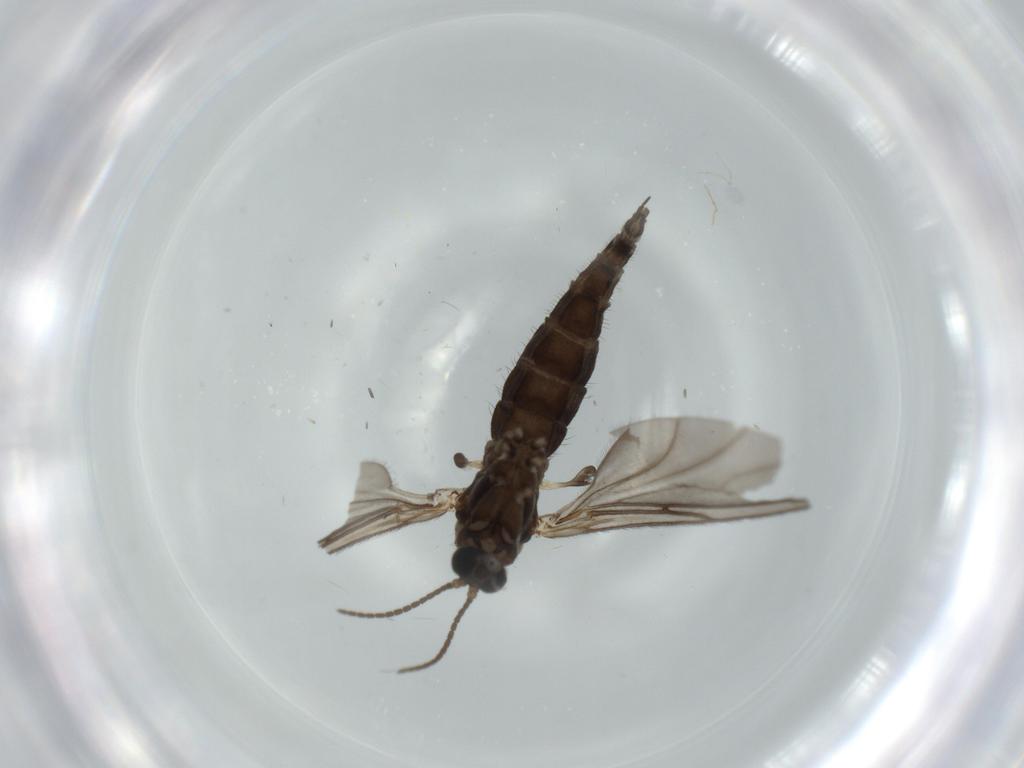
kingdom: Animalia
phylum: Arthropoda
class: Insecta
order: Diptera
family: Sciaridae
